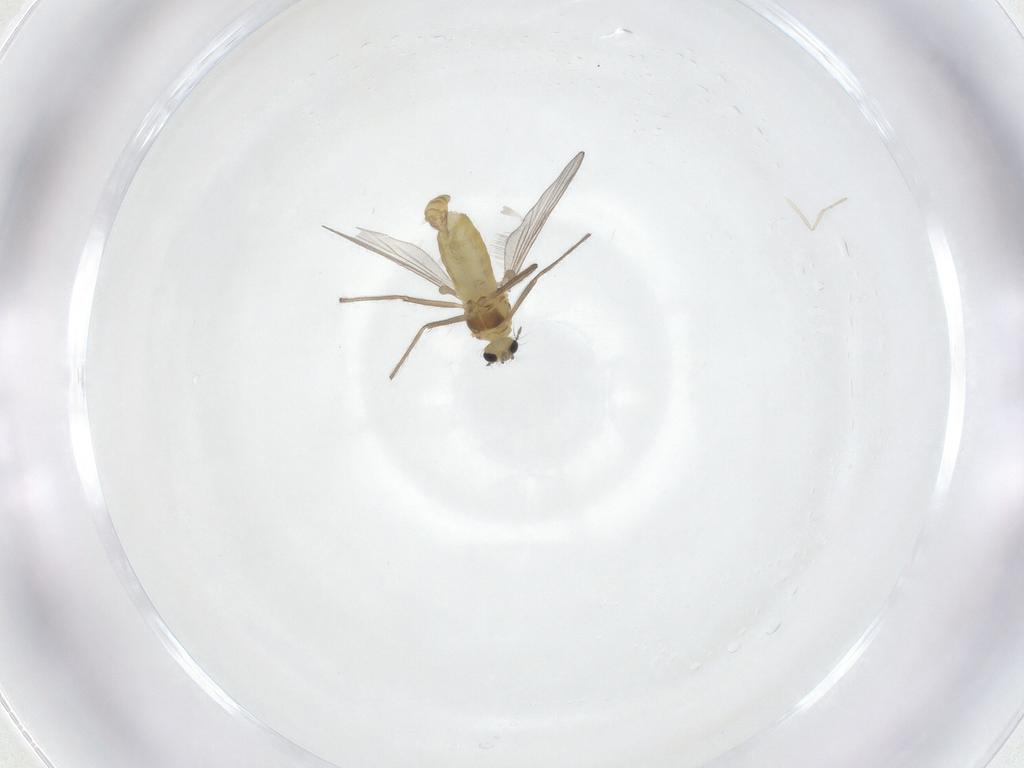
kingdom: Animalia
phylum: Arthropoda
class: Insecta
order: Diptera
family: Chironomidae
